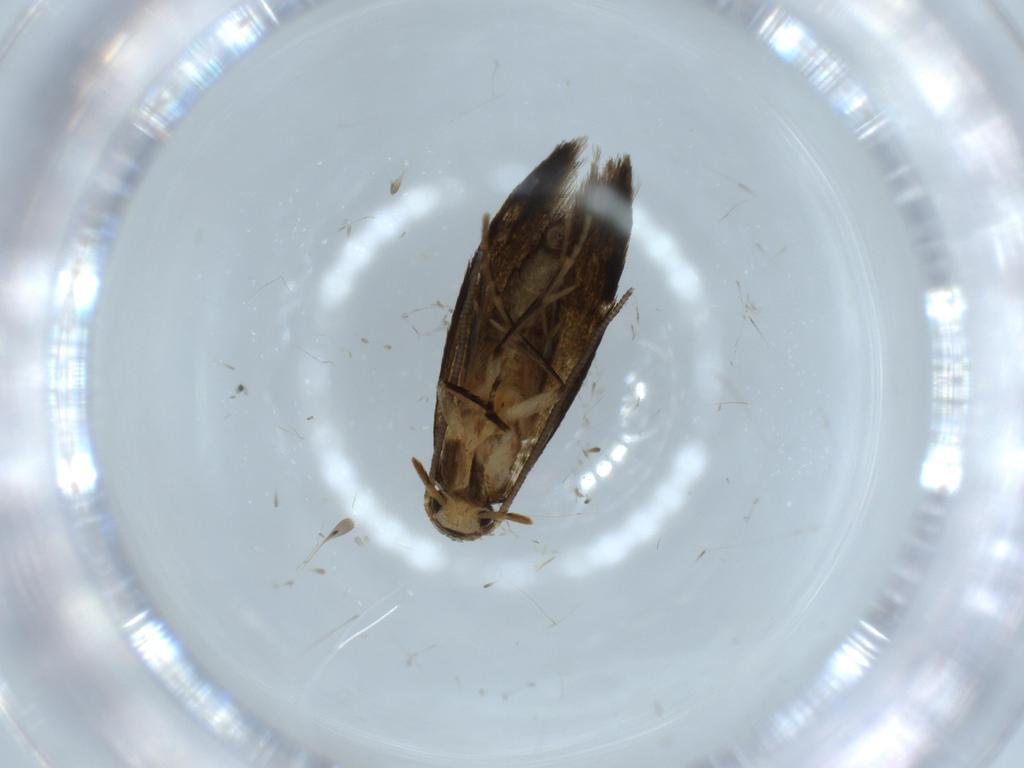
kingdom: Animalia
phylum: Arthropoda
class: Insecta
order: Lepidoptera
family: Tineidae
